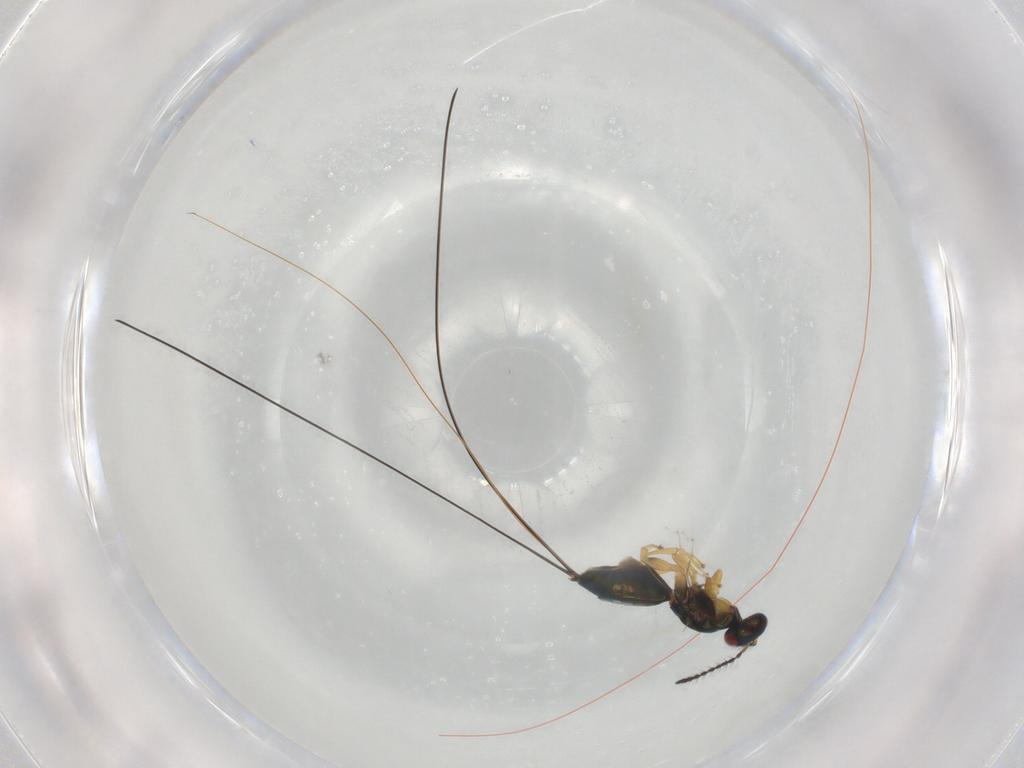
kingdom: Animalia
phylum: Arthropoda
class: Insecta
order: Hymenoptera
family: Pteromalidae
